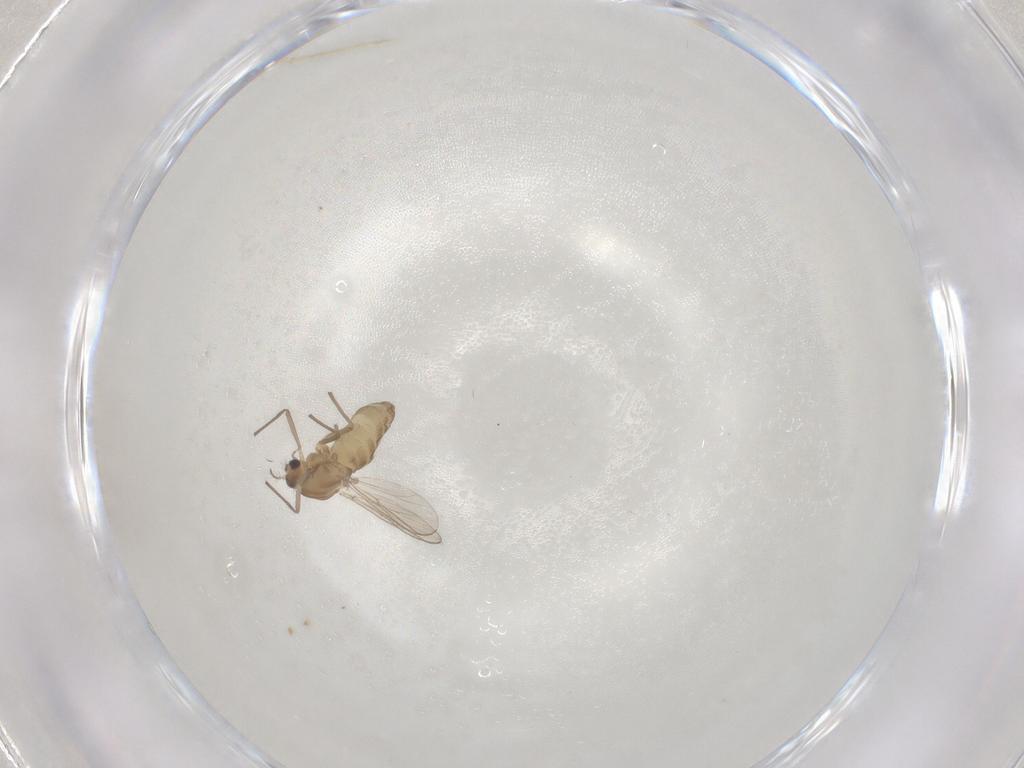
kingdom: Animalia
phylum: Arthropoda
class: Insecta
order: Diptera
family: Chironomidae
